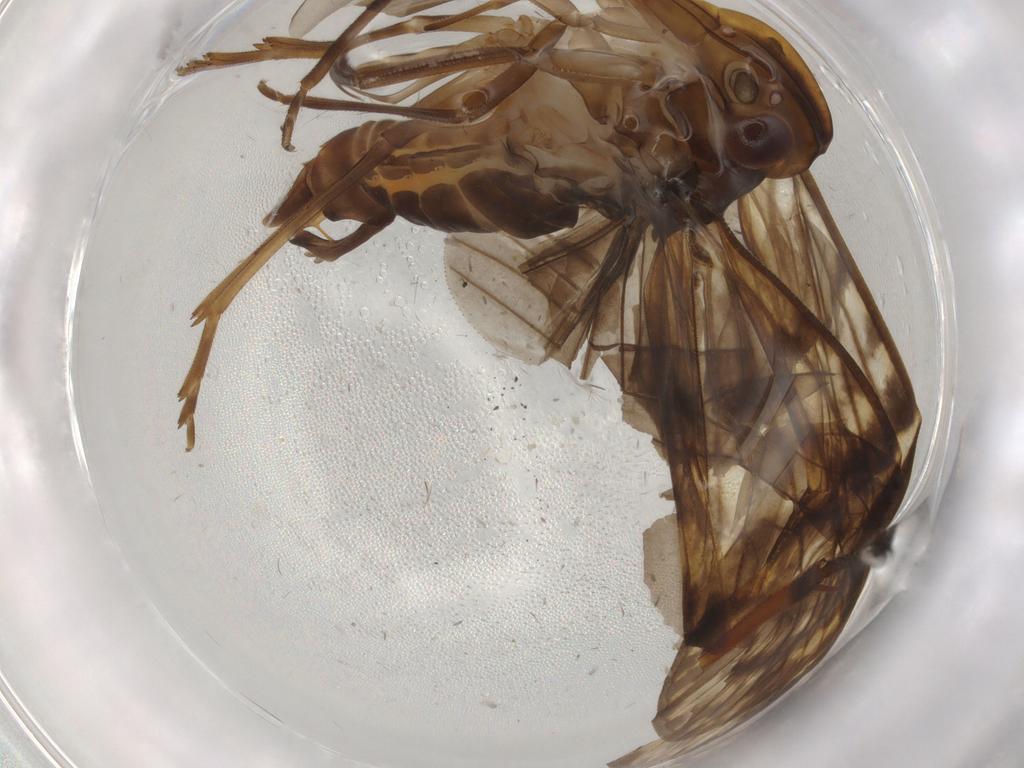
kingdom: Animalia
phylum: Arthropoda
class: Insecta
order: Hemiptera
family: Cixiidae
